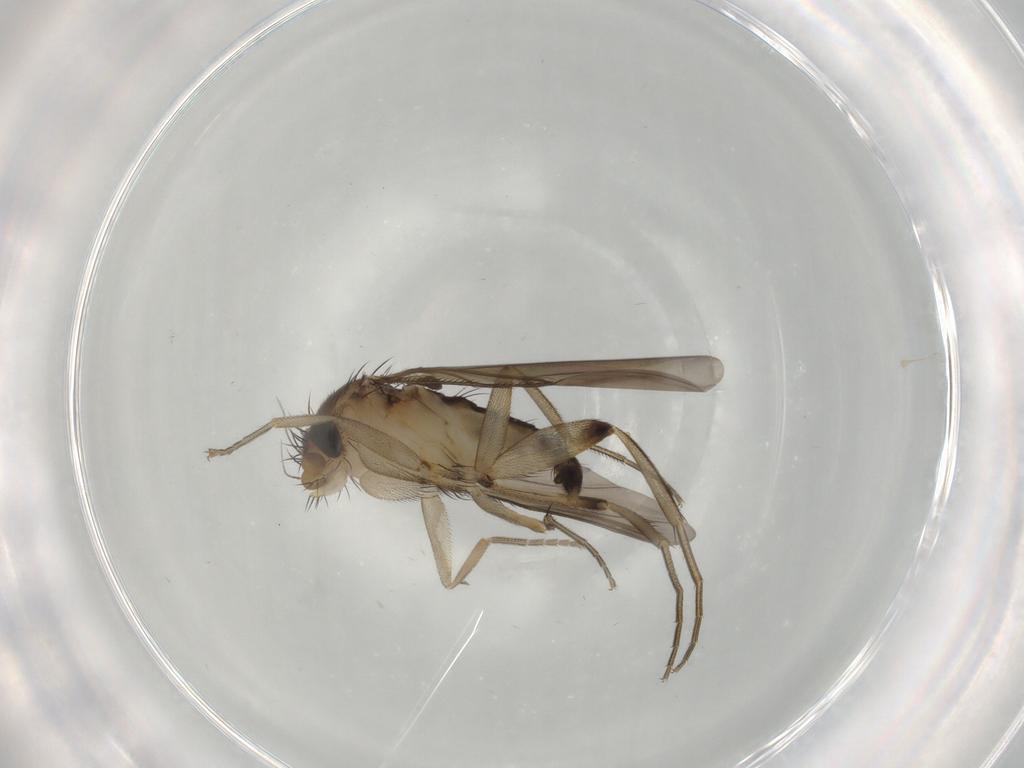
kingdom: Animalia
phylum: Arthropoda
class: Insecta
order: Diptera
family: Phoridae
